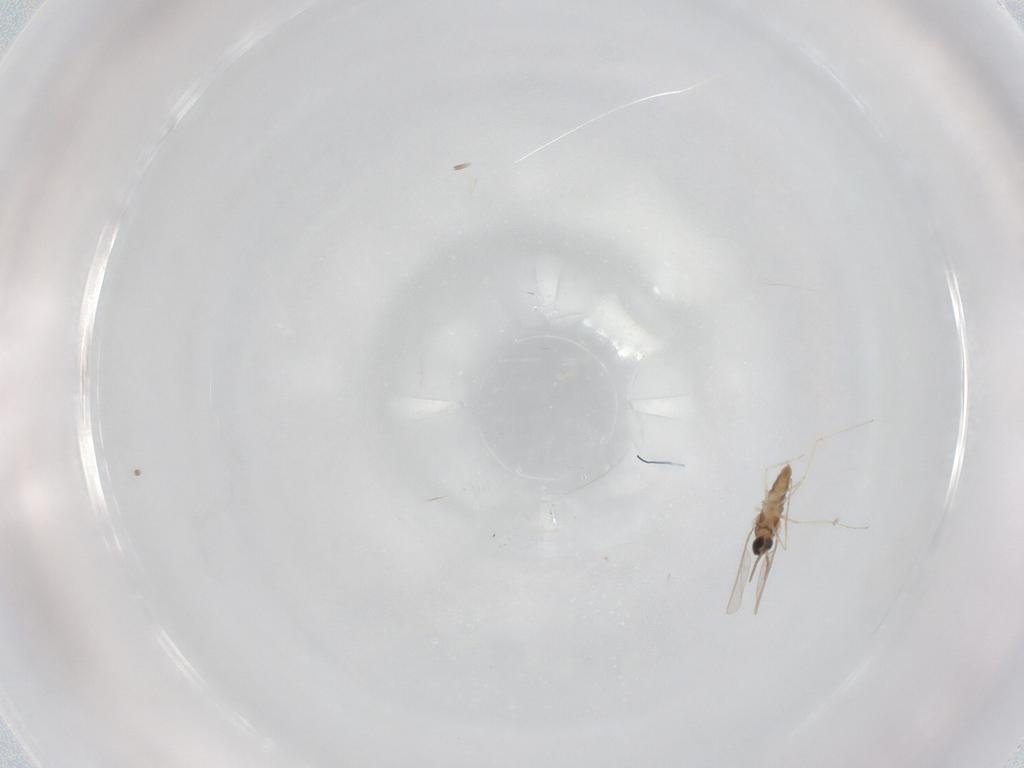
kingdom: Animalia
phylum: Arthropoda
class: Insecta
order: Diptera
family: Cecidomyiidae
